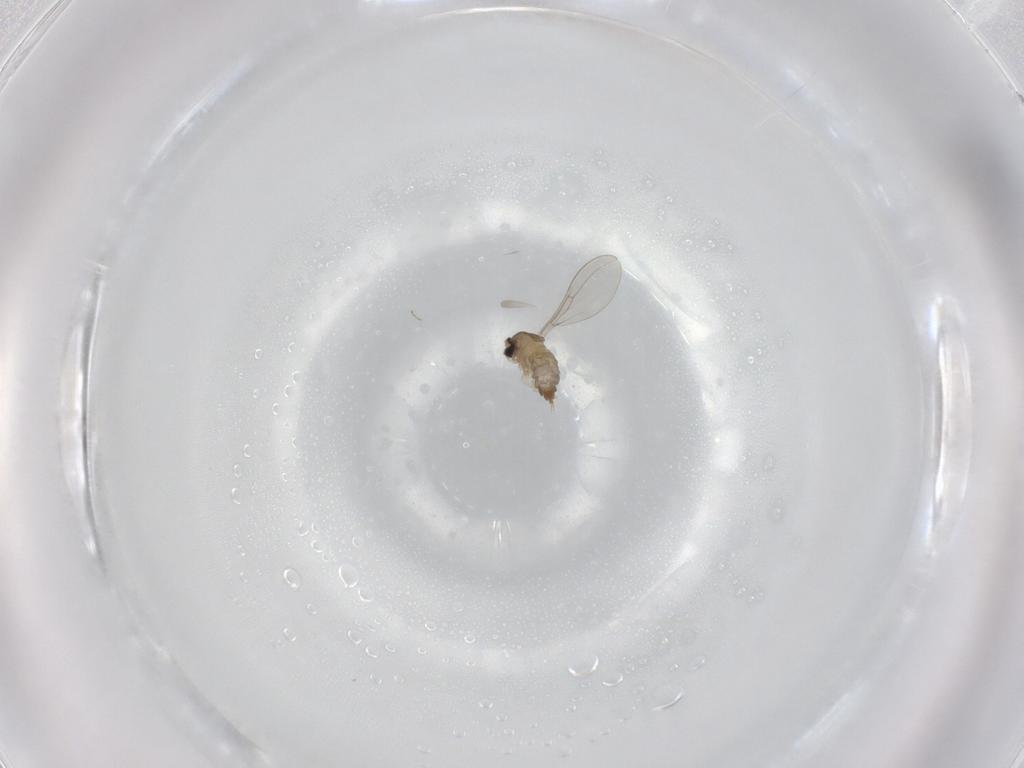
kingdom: Animalia
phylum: Arthropoda
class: Insecta
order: Diptera
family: Cecidomyiidae
